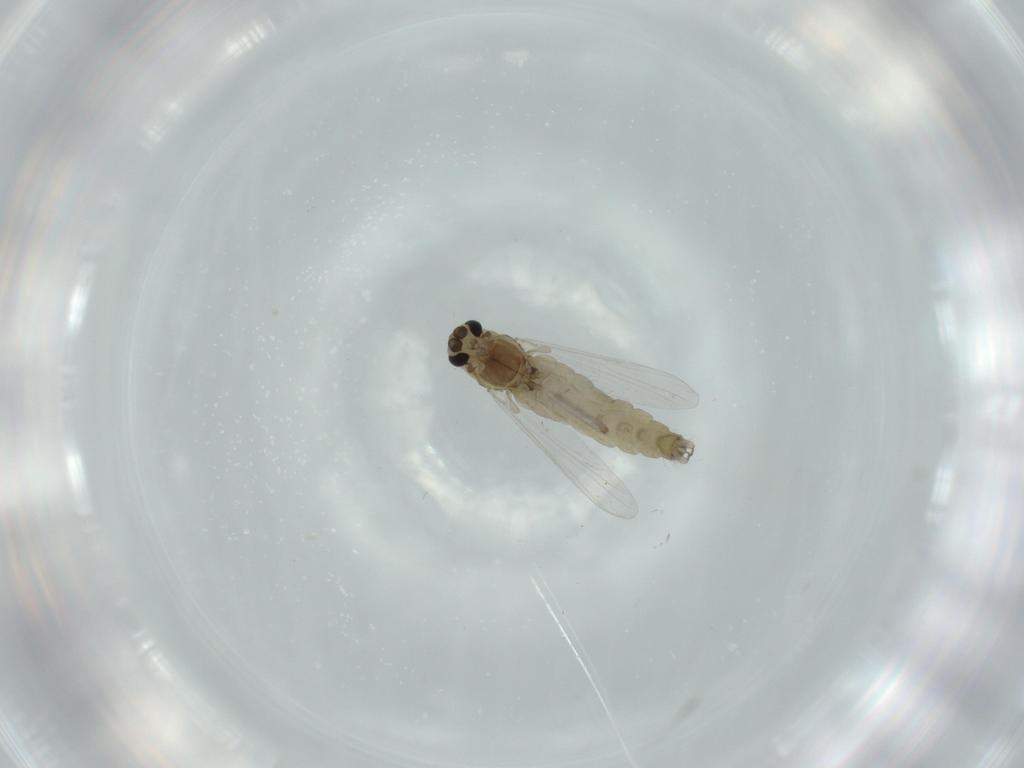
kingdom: Animalia
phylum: Arthropoda
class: Insecta
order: Diptera
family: Chironomidae
